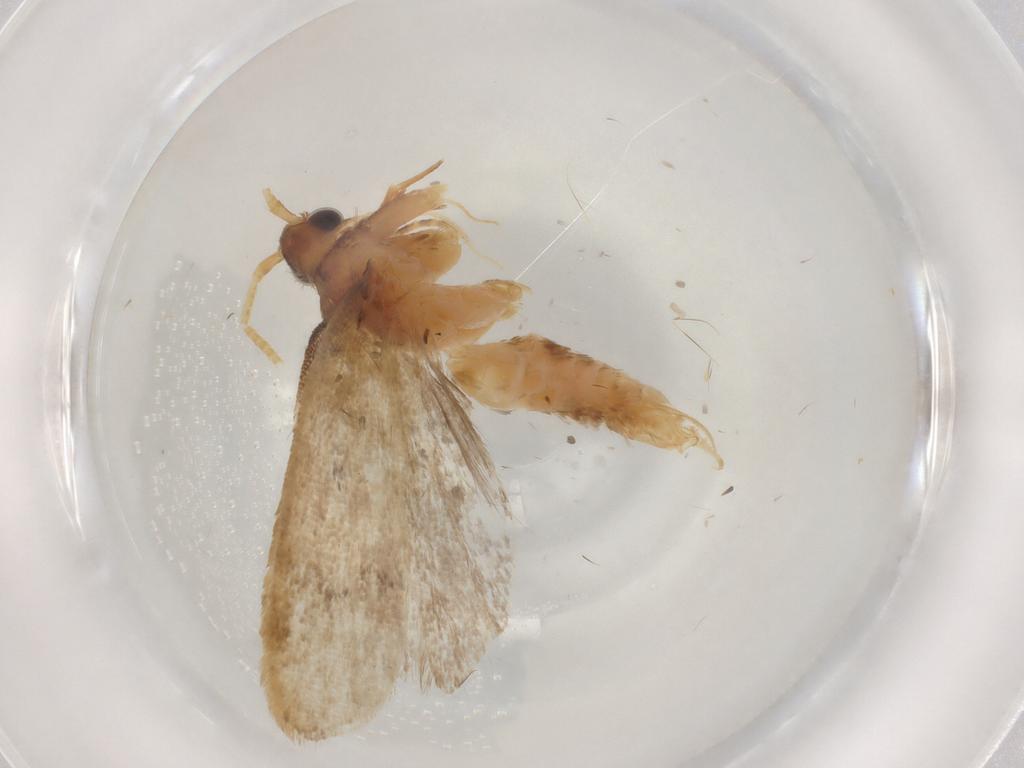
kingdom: Animalia
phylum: Arthropoda
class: Insecta
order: Lepidoptera
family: Lecithoceridae
